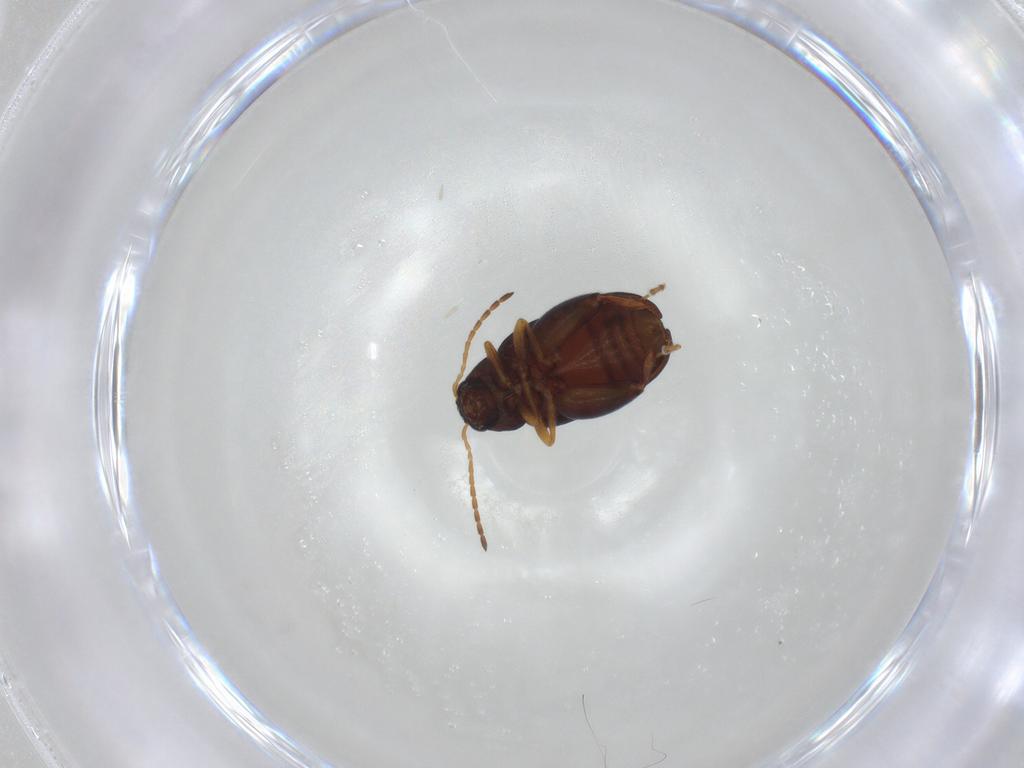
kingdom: Animalia
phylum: Arthropoda
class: Insecta
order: Coleoptera
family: Chrysomelidae
